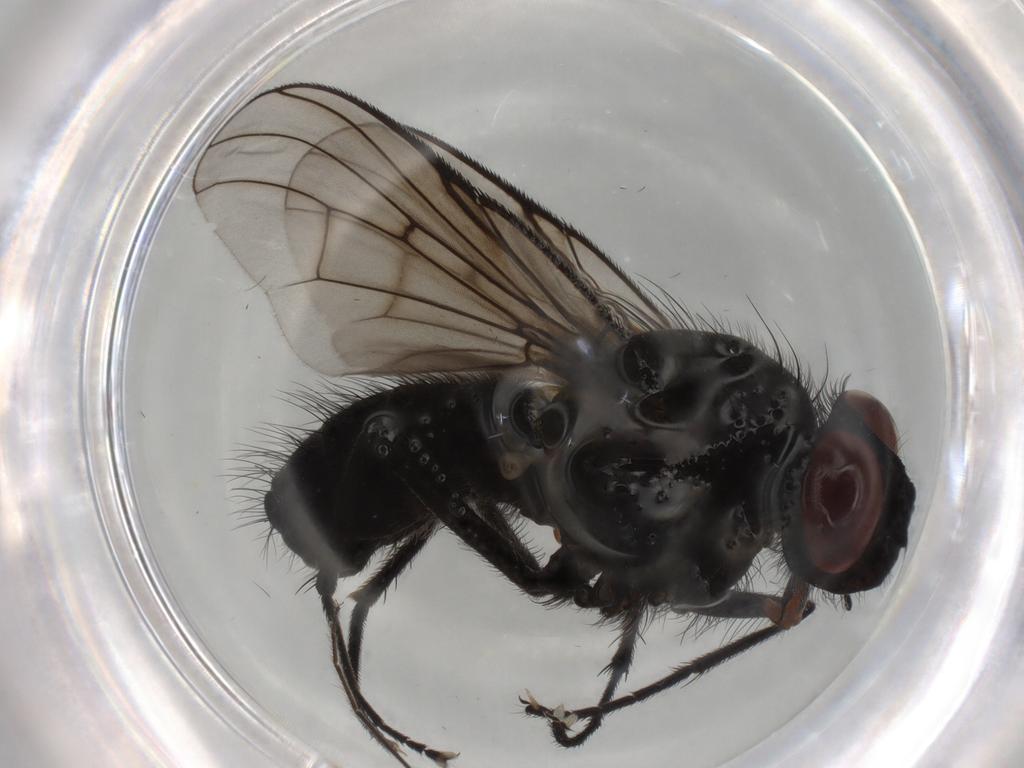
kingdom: Animalia
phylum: Arthropoda
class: Insecta
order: Diptera
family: Muscidae
